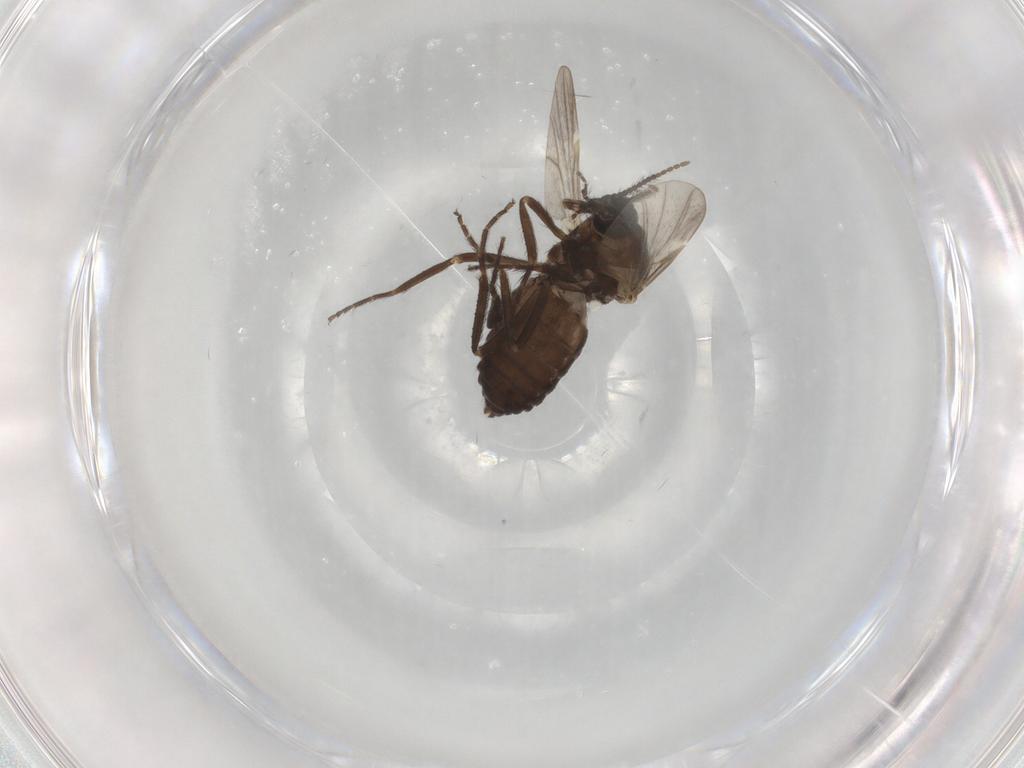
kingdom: Animalia
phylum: Arthropoda
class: Insecta
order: Diptera
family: Ceratopogonidae
